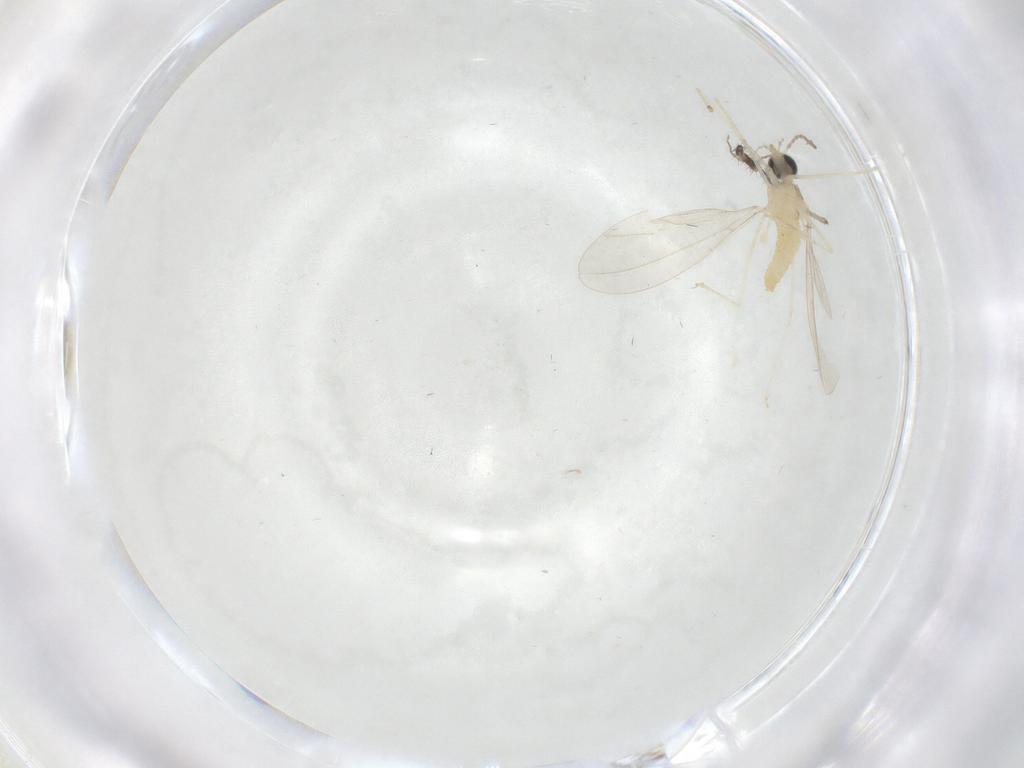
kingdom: Animalia
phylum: Arthropoda
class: Insecta
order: Diptera
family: Cecidomyiidae
